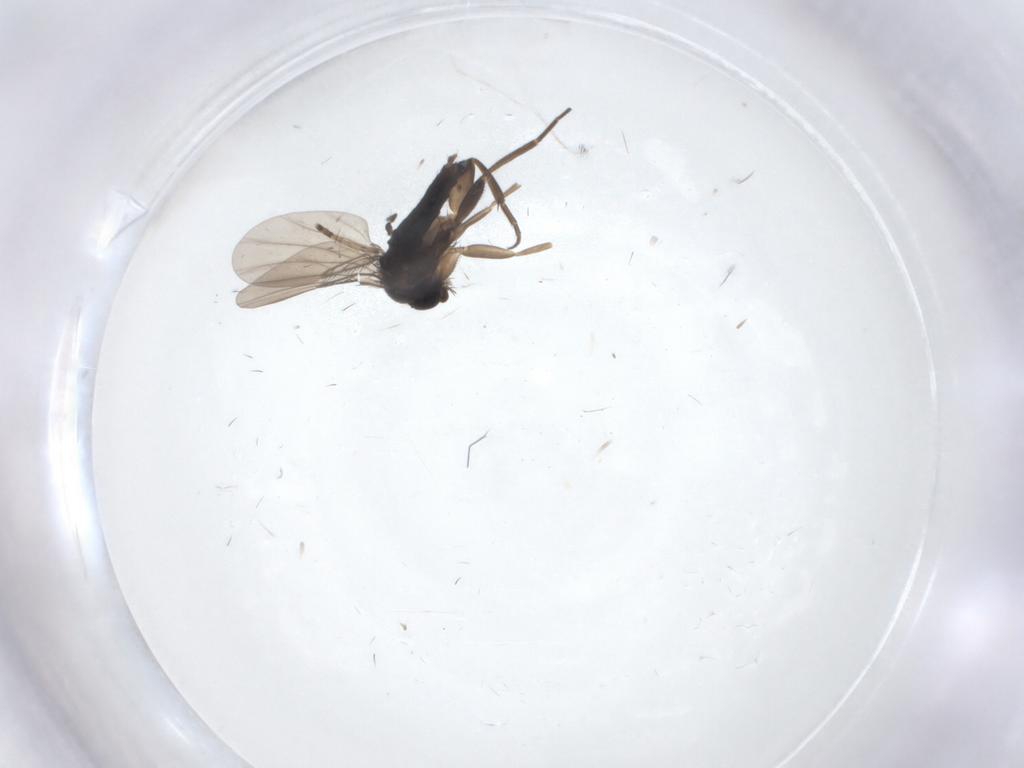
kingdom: Animalia
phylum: Arthropoda
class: Insecta
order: Diptera
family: Phoridae
